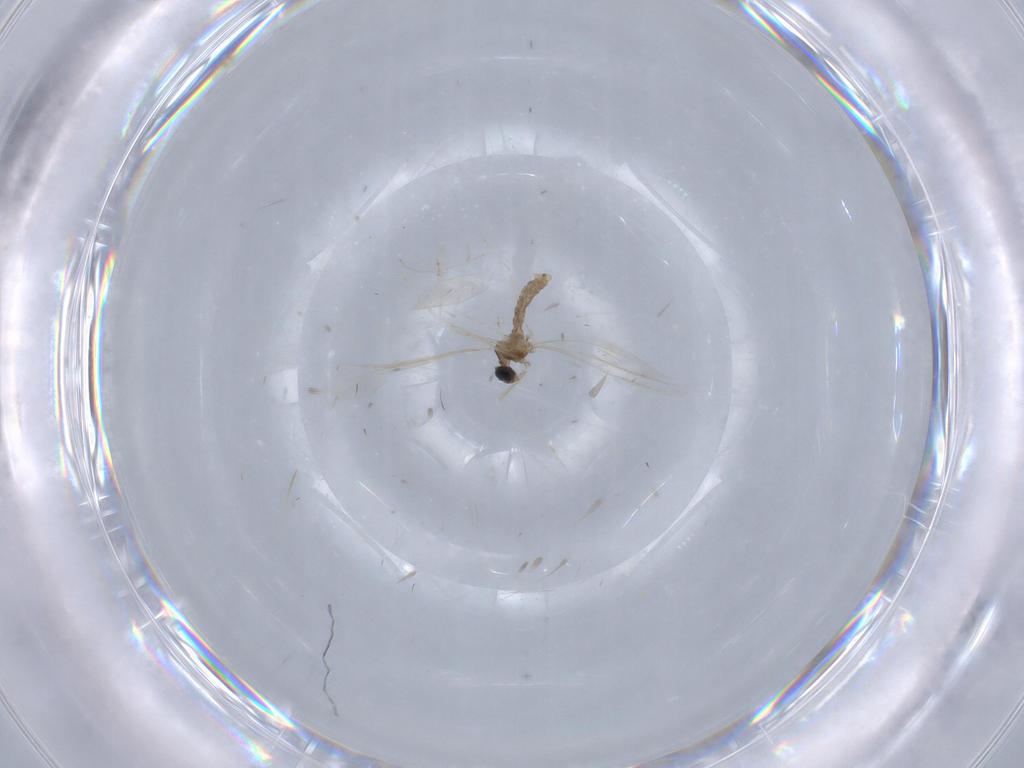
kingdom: Animalia
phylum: Arthropoda
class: Insecta
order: Diptera
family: Cecidomyiidae
